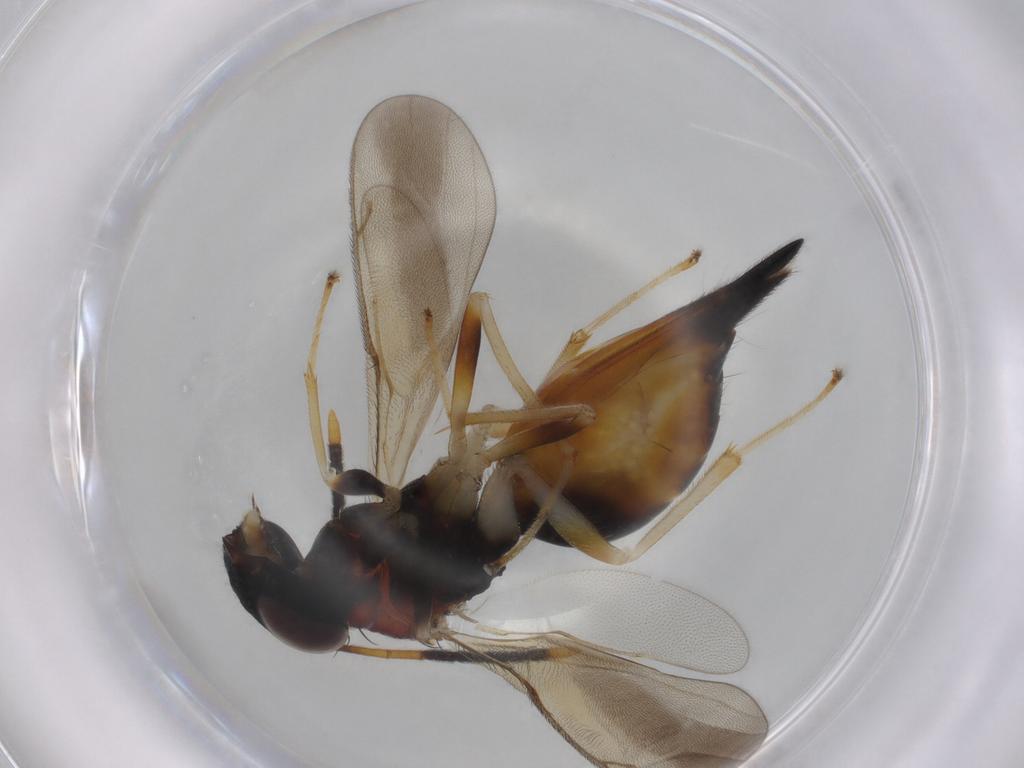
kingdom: Animalia
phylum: Arthropoda
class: Insecta
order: Hymenoptera
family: Diparidae
